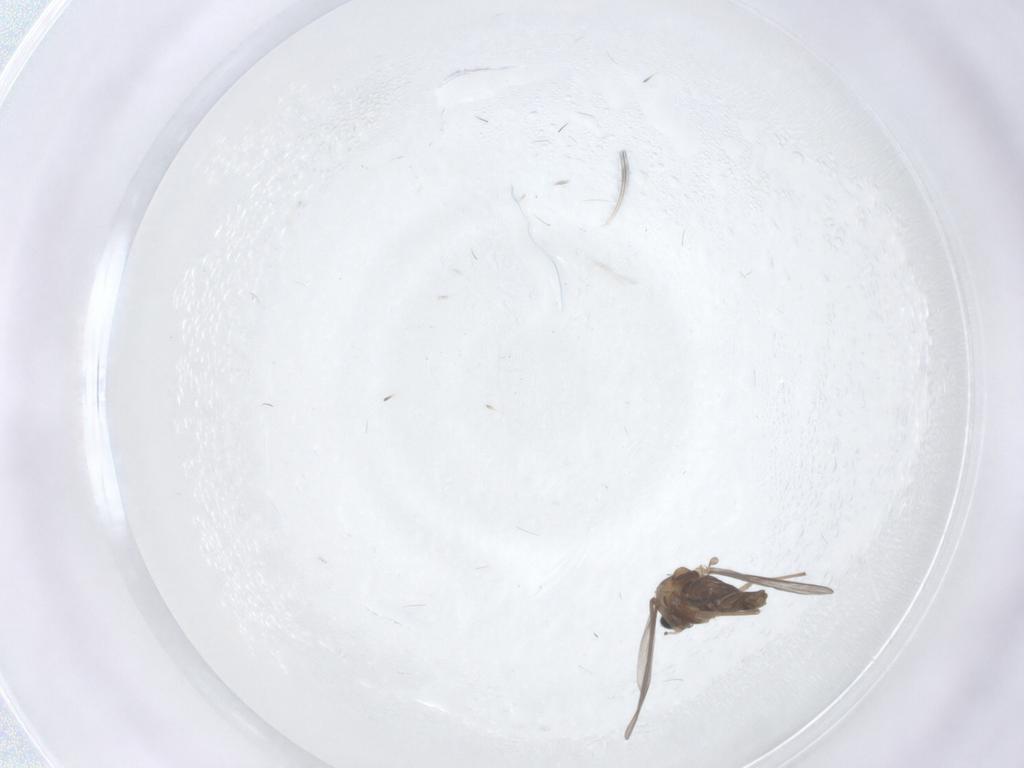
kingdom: Animalia
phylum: Arthropoda
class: Insecta
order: Diptera
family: Chironomidae
